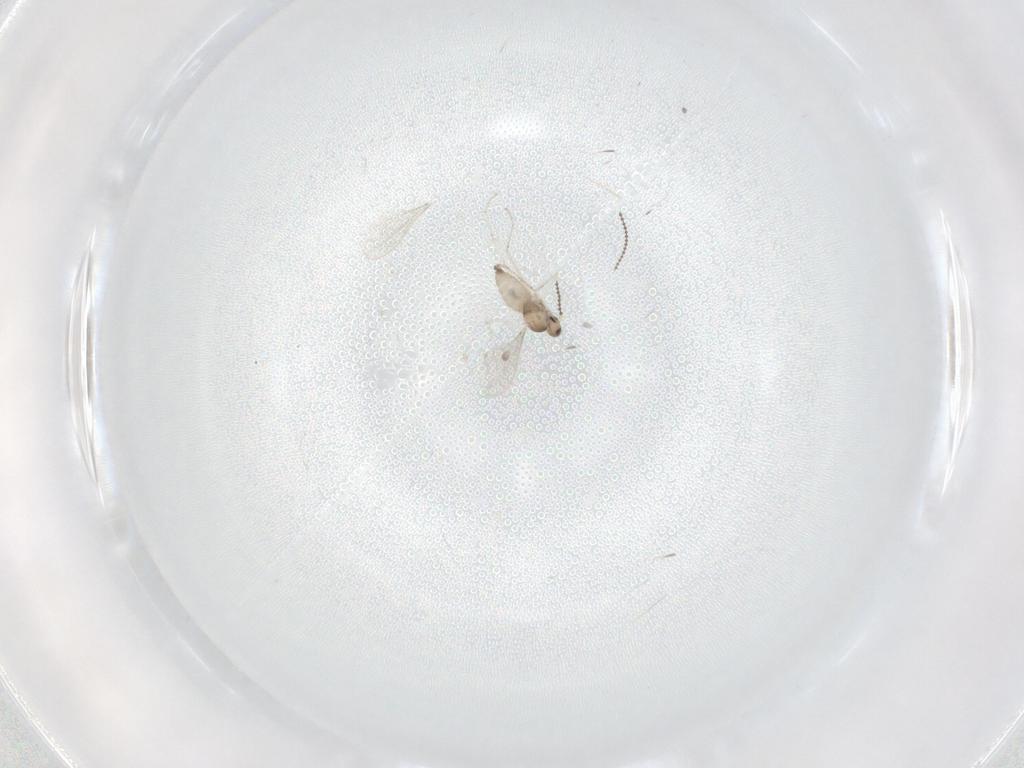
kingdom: Animalia
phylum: Arthropoda
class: Insecta
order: Diptera
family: Cecidomyiidae
